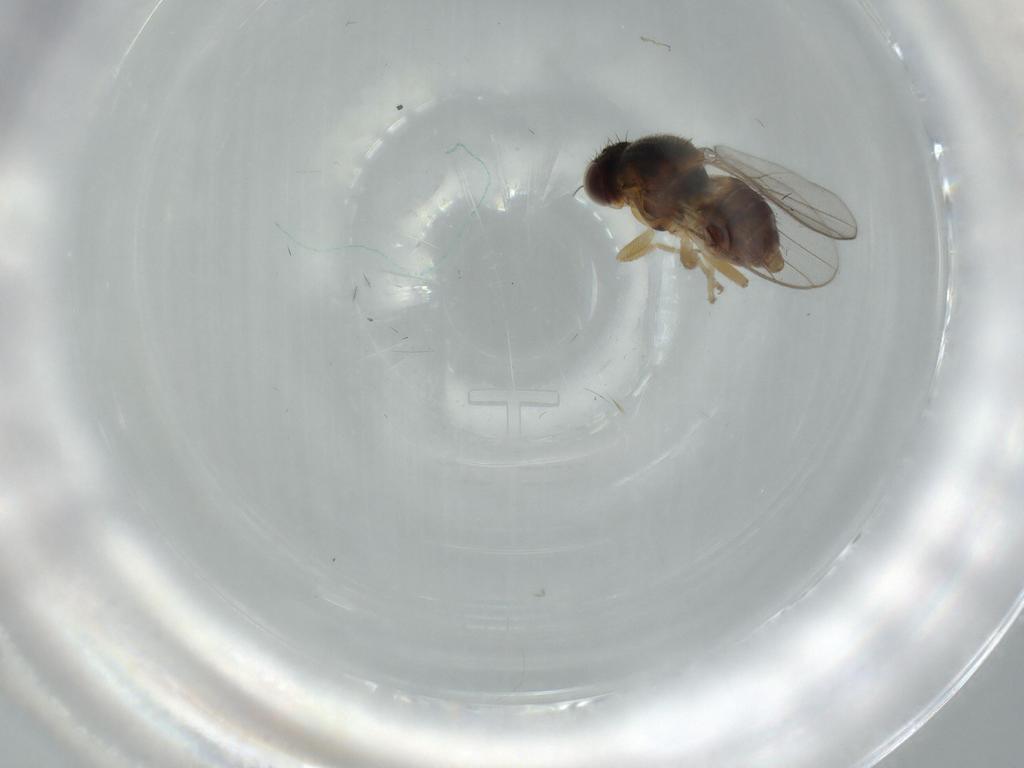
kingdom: Animalia
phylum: Arthropoda
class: Insecta
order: Diptera
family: Chloropidae
